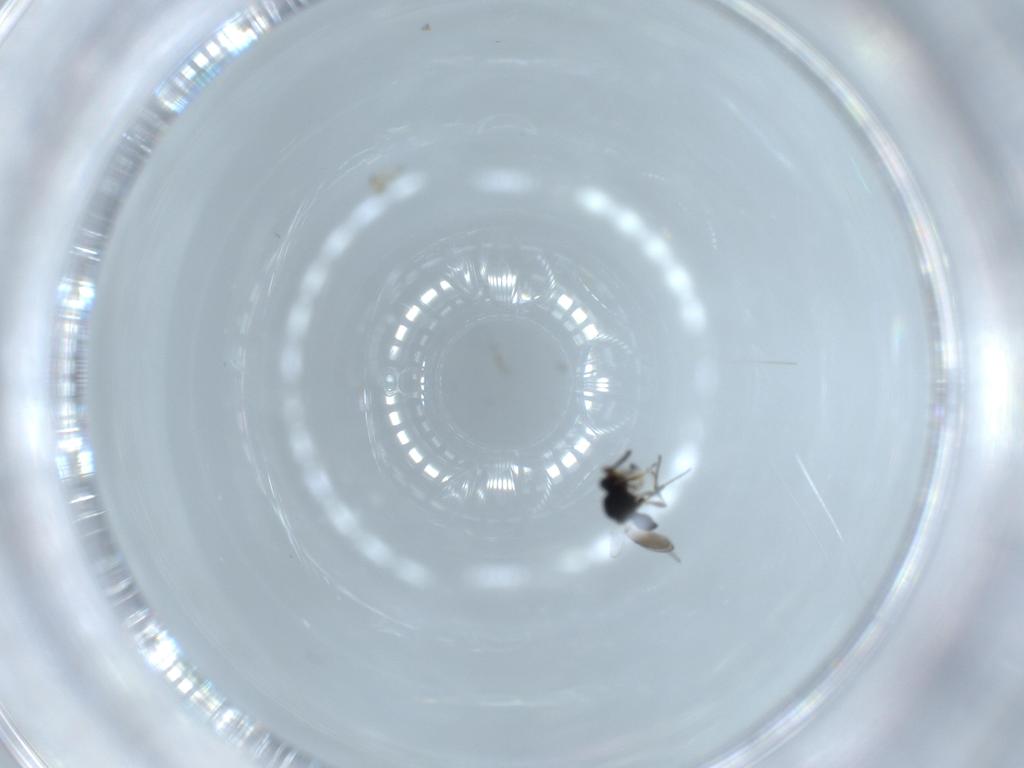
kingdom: Animalia
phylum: Arthropoda
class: Insecta
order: Hymenoptera
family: Platygastridae
